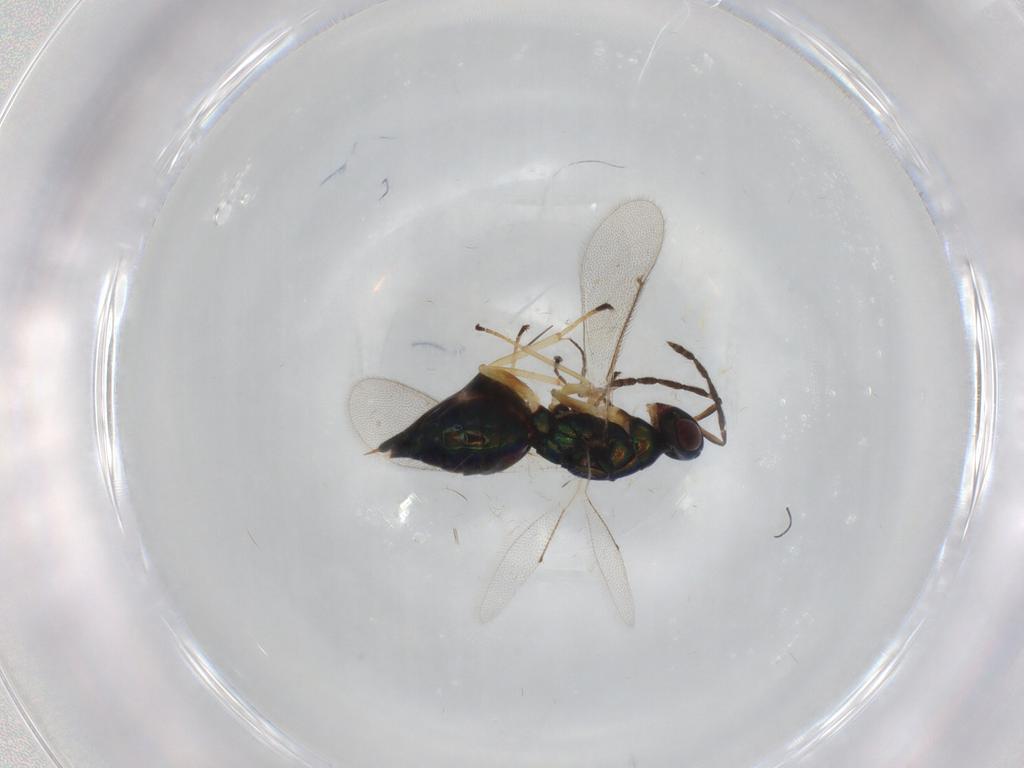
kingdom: Animalia
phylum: Arthropoda
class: Insecta
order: Hymenoptera
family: Eulophidae
